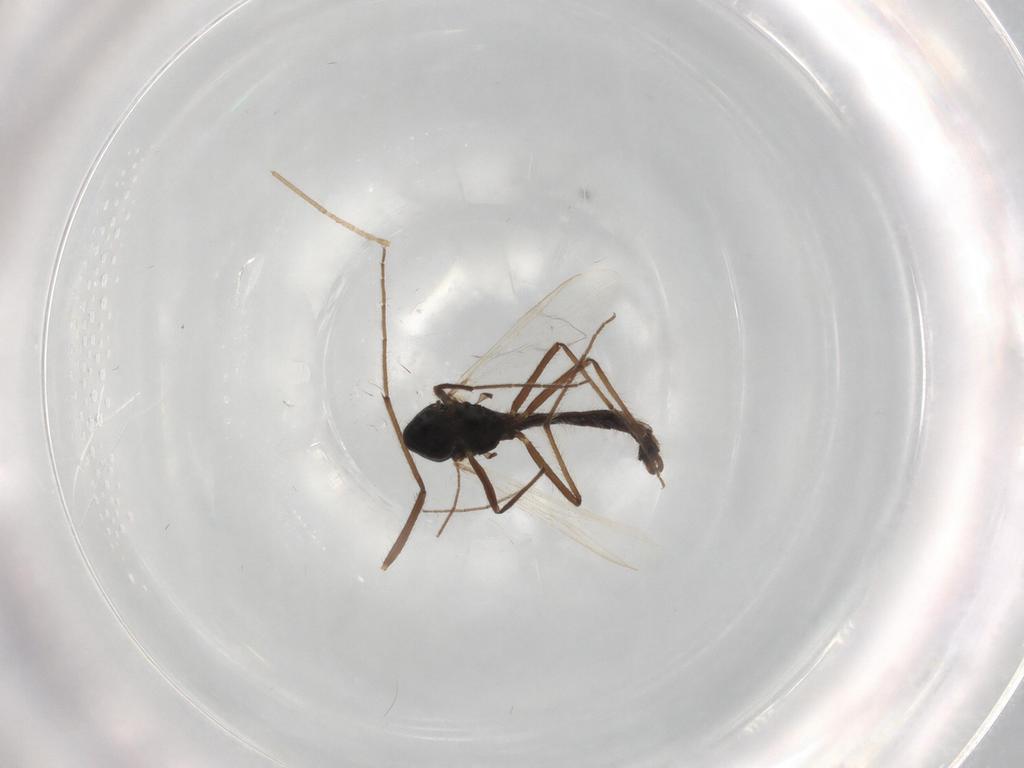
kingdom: Animalia
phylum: Arthropoda
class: Insecta
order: Diptera
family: Muscidae
